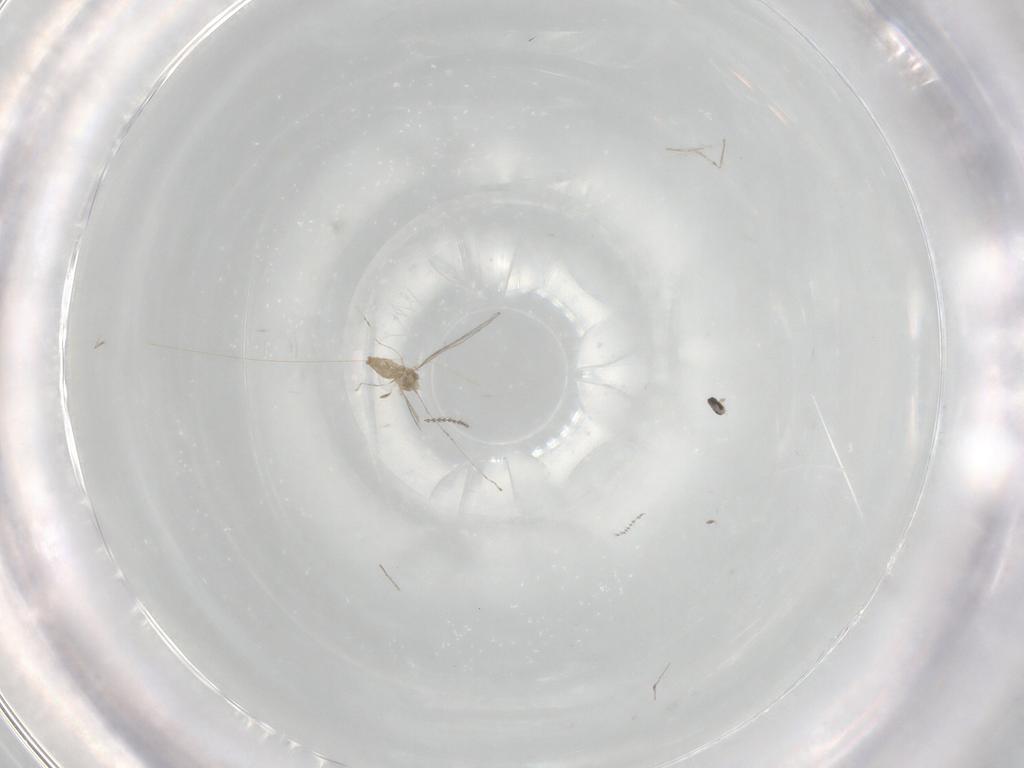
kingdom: Animalia
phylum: Arthropoda
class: Insecta
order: Diptera
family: Cecidomyiidae
